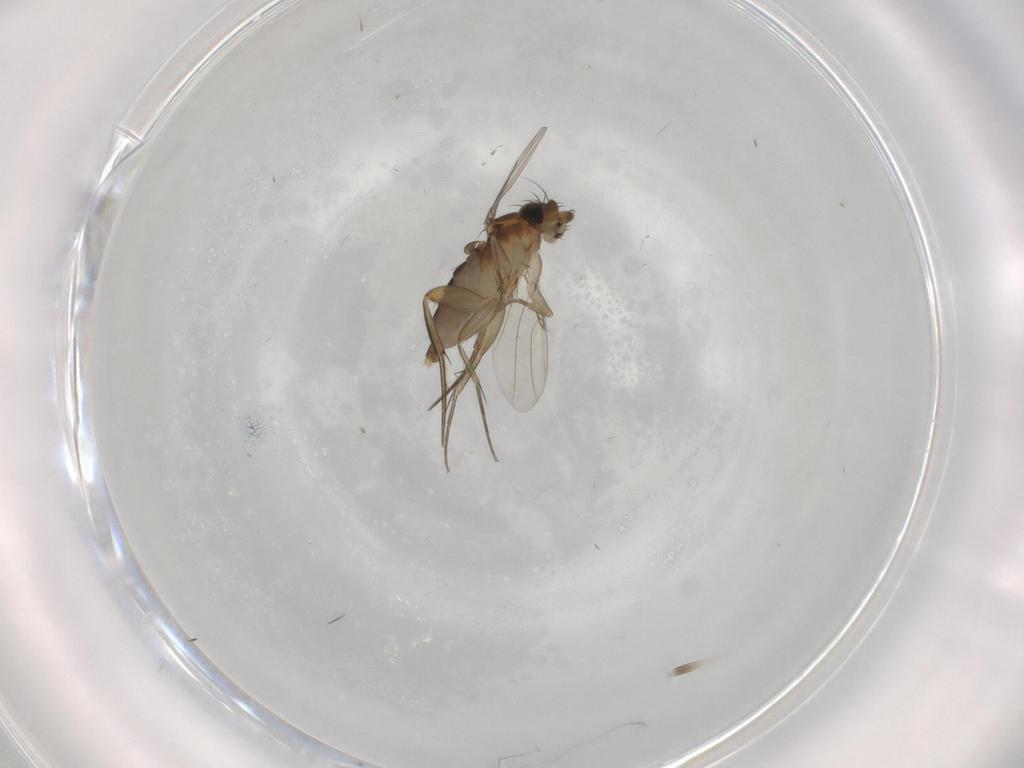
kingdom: Animalia
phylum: Arthropoda
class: Insecta
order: Diptera
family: Phoridae
